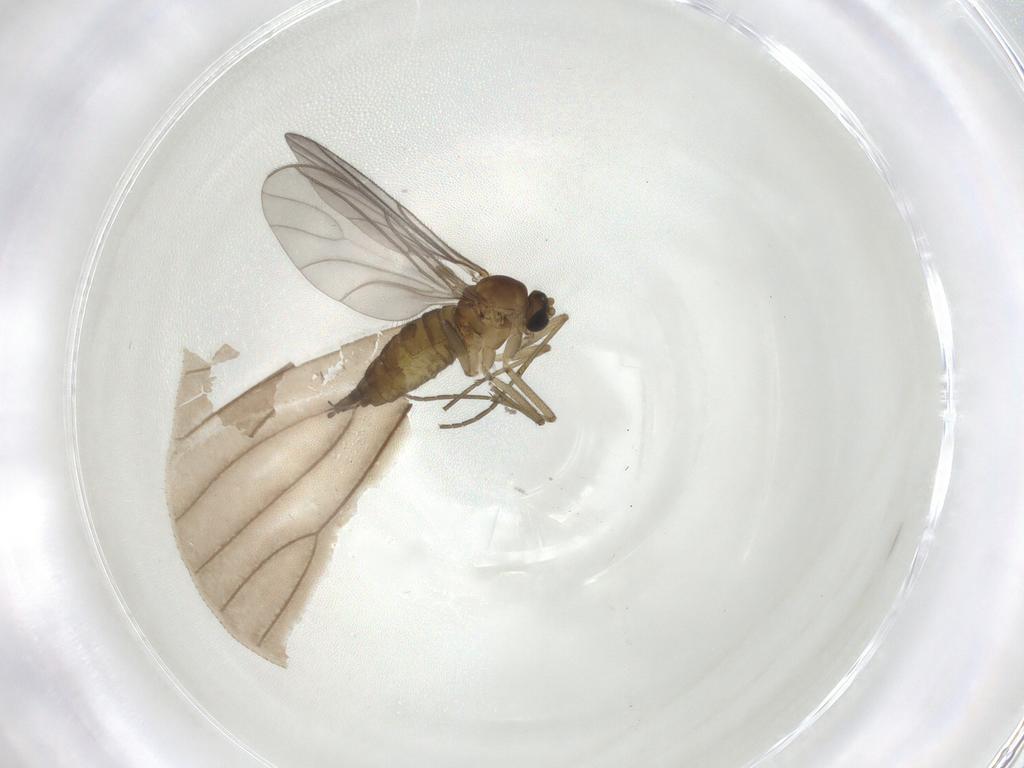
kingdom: Animalia
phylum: Arthropoda
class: Insecta
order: Diptera
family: Sciaridae
